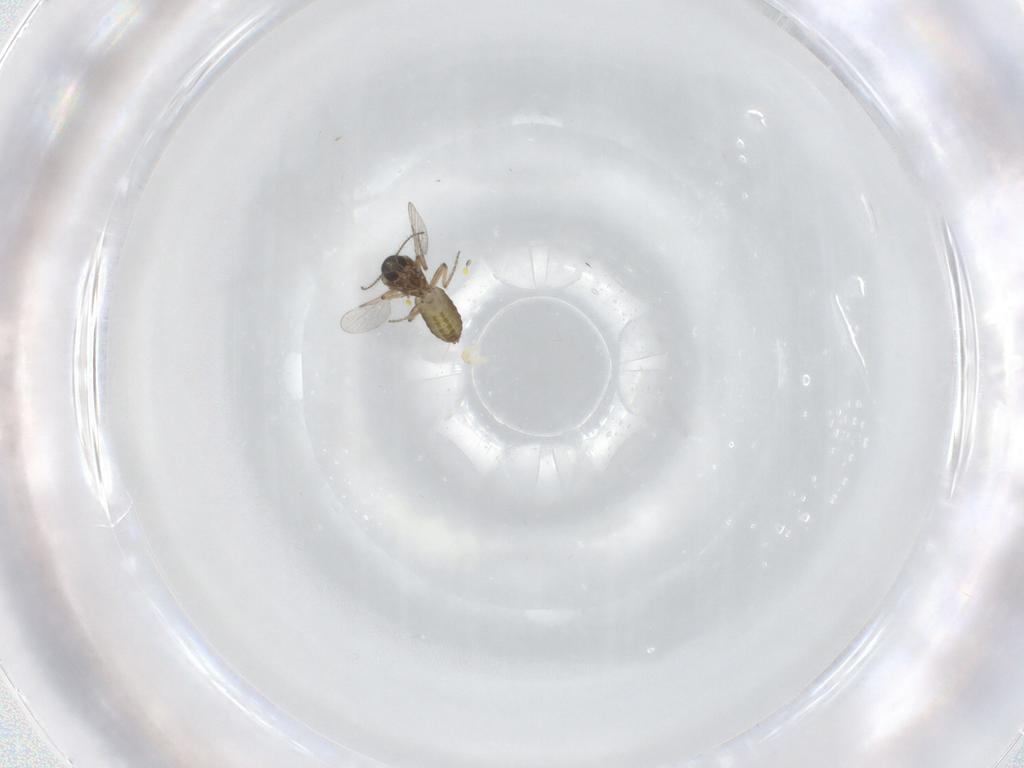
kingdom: Animalia
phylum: Arthropoda
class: Insecta
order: Diptera
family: Ceratopogonidae
